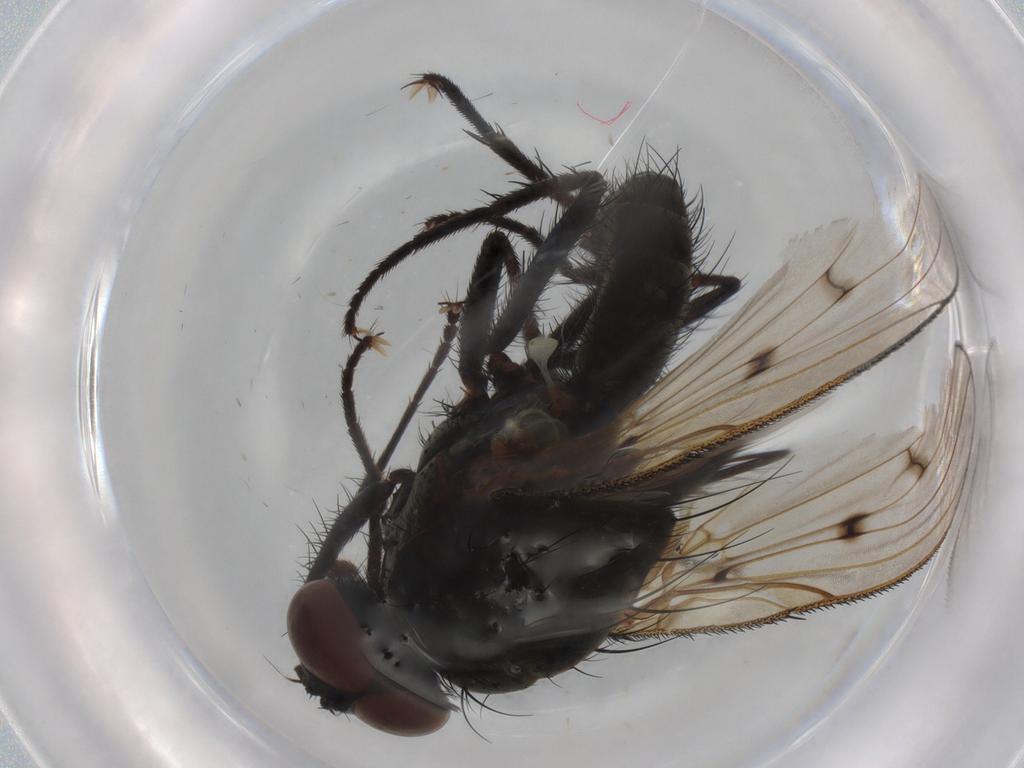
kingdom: Animalia
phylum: Arthropoda
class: Insecta
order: Diptera
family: Anthomyiidae
